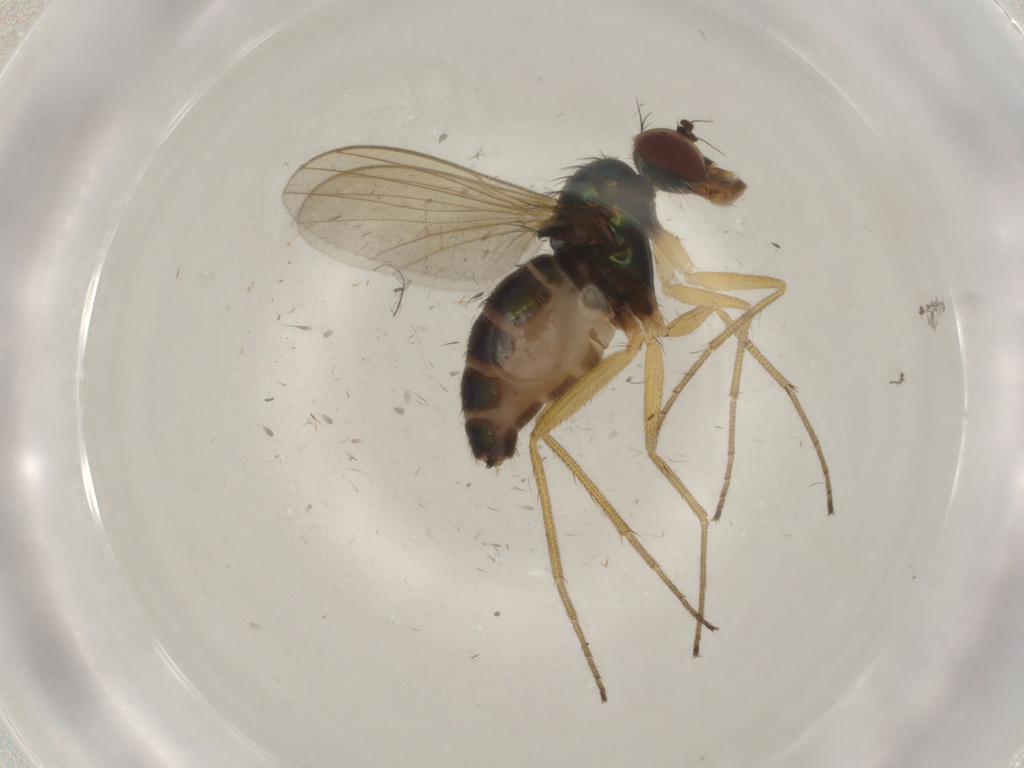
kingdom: Animalia
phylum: Arthropoda
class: Insecta
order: Diptera
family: Dolichopodidae
